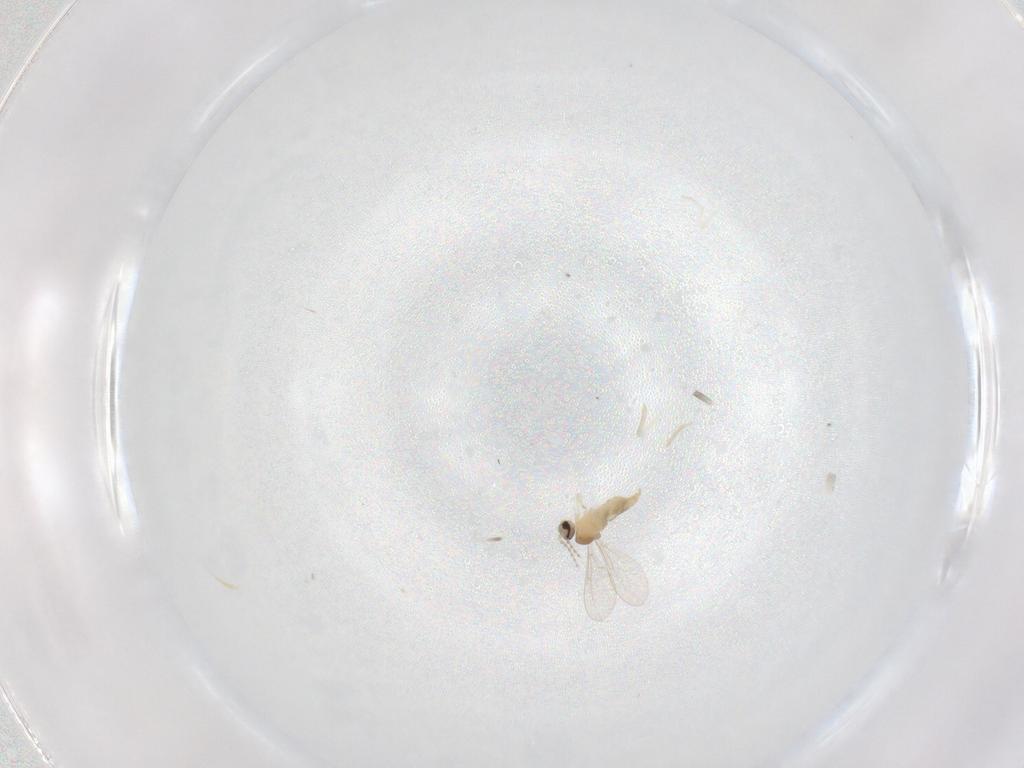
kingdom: Animalia
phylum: Arthropoda
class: Insecta
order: Diptera
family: Cecidomyiidae
